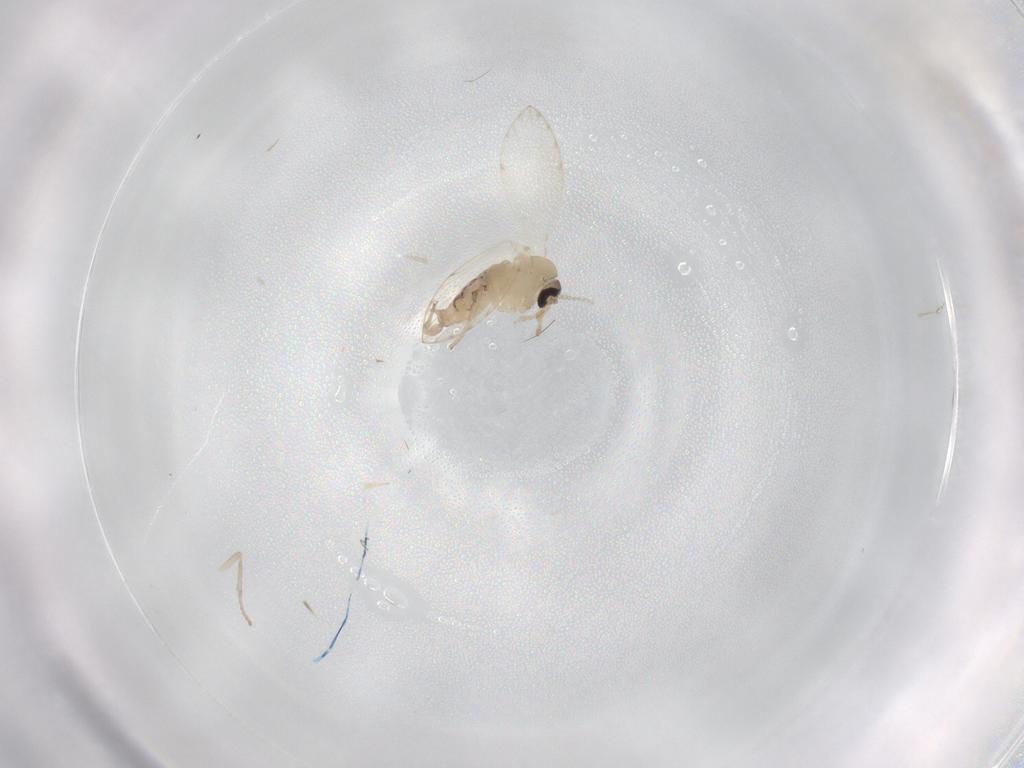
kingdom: Animalia
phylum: Arthropoda
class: Insecta
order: Diptera
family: Psychodidae
